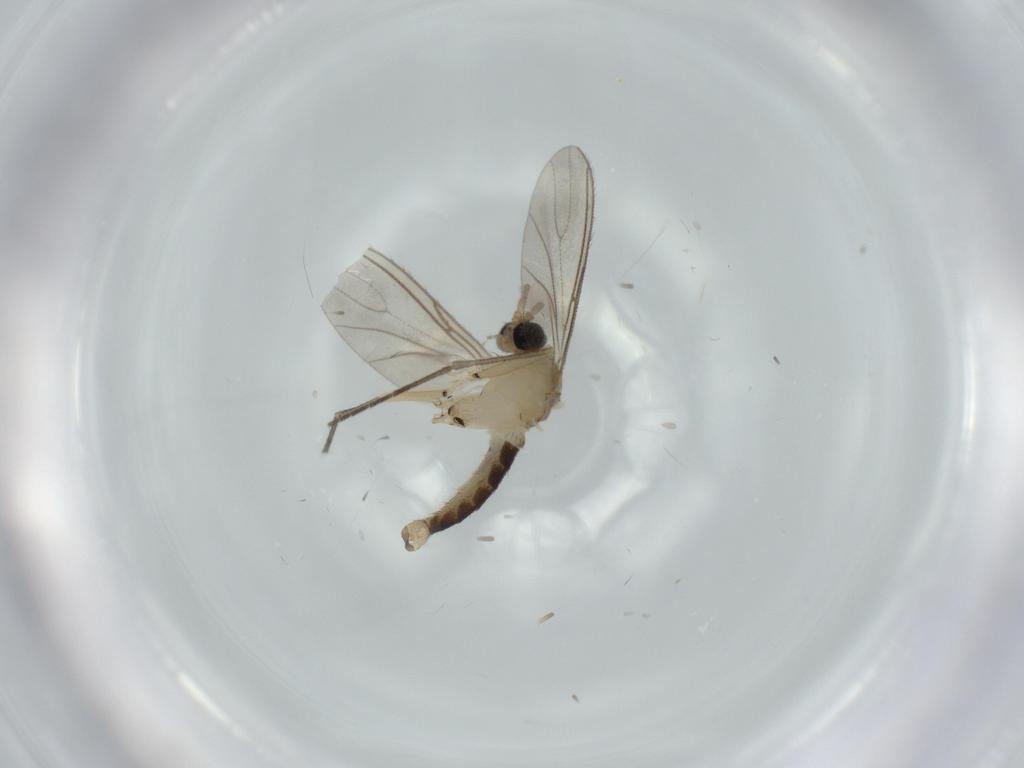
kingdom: Animalia
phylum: Arthropoda
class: Insecta
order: Diptera
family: Sciaridae
